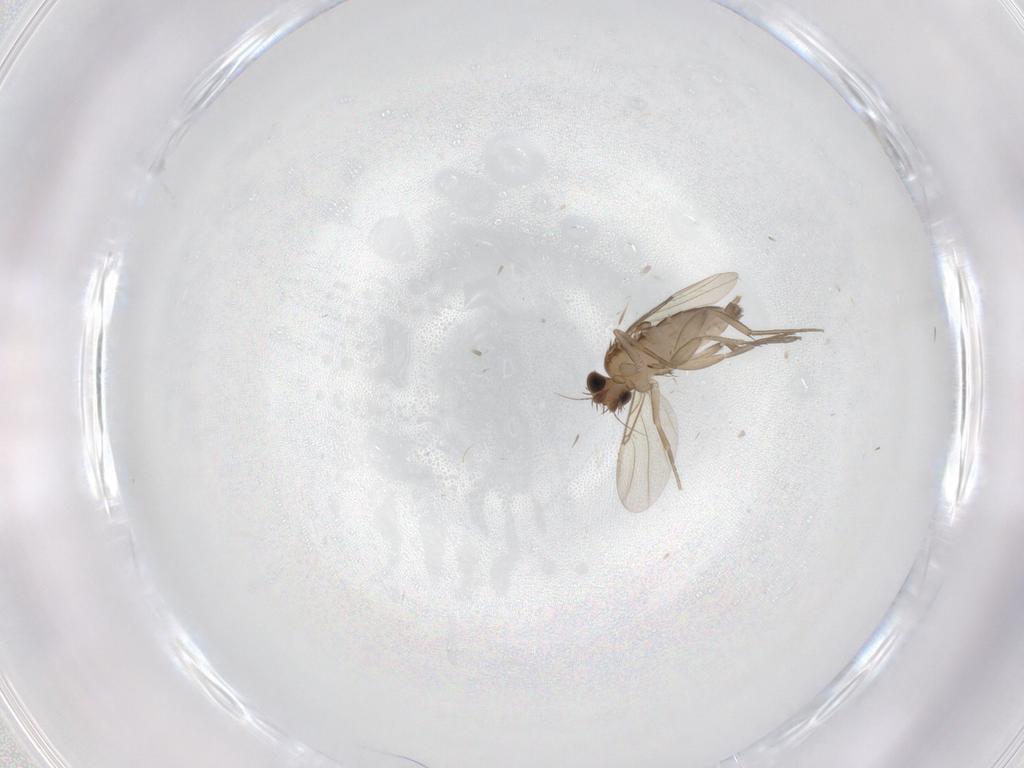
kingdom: Animalia
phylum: Arthropoda
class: Insecta
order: Diptera
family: Phoridae
